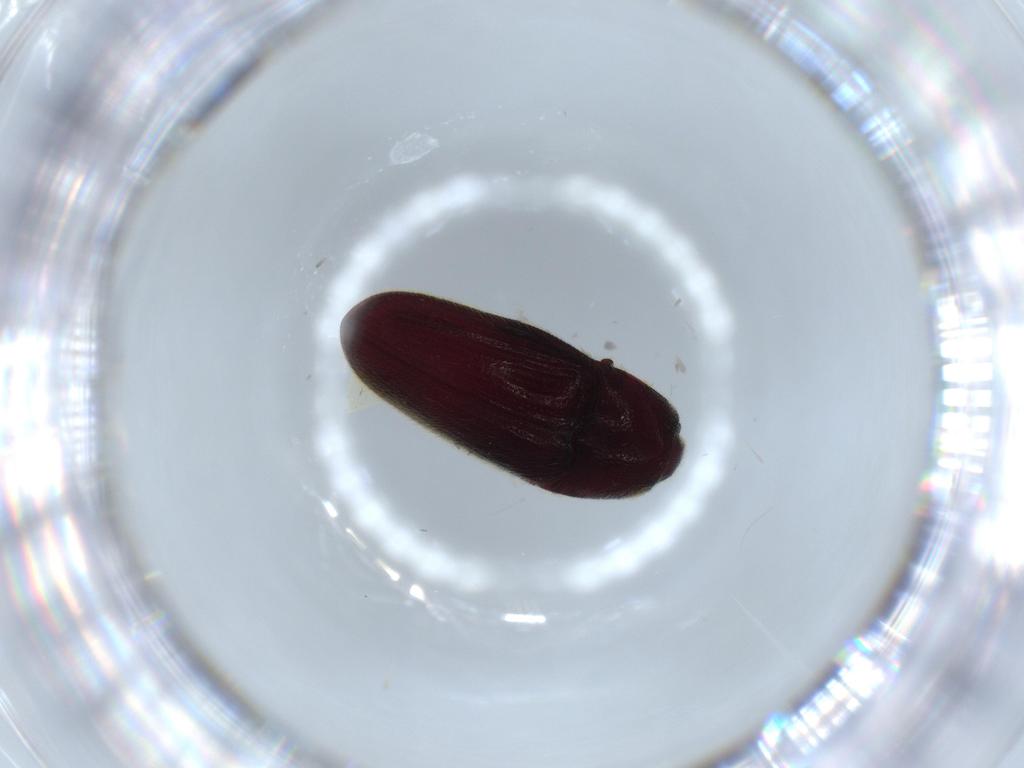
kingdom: Animalia
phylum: Arthropoda
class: Insecta
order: Coleoptera
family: Throscidae
